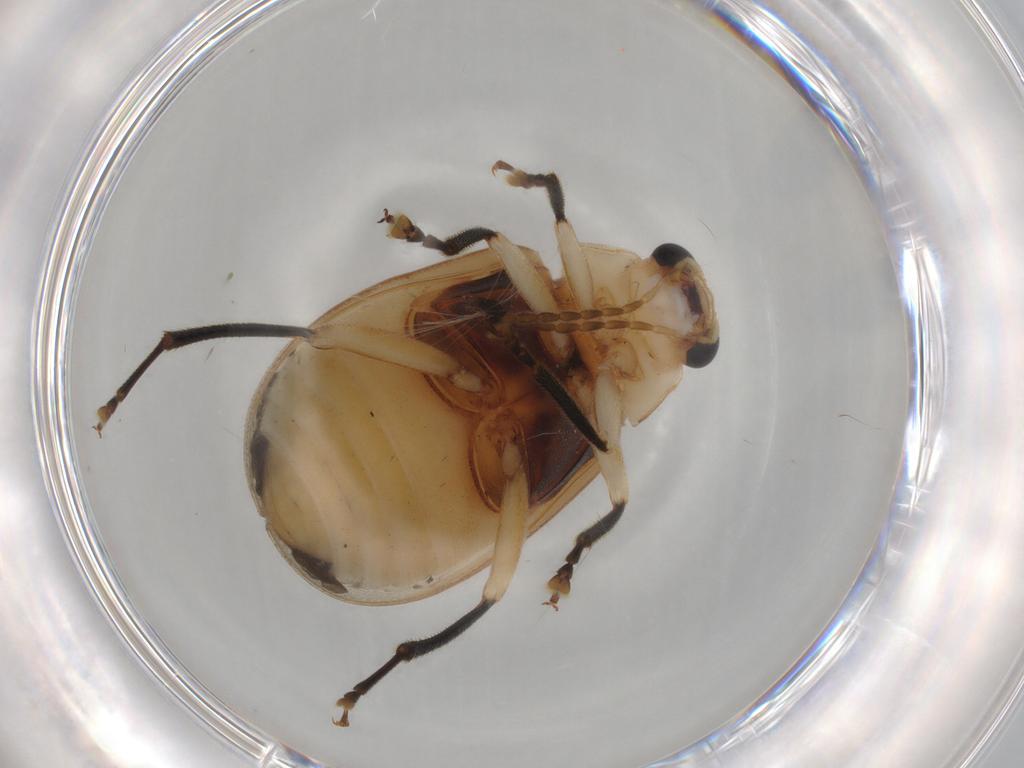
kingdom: Animalia
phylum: Arthropoda
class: Insecta
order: Coleoptera
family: Chrysomelidae
